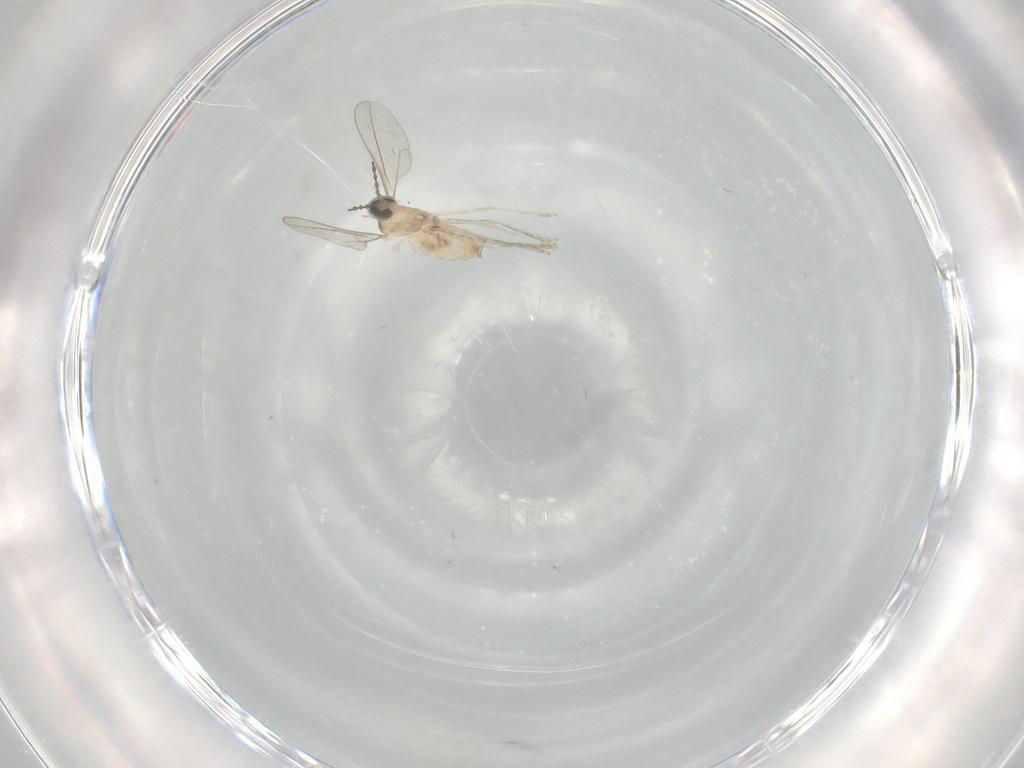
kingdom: Animalia
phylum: Arthropoda
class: Insecta
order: Diptera
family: Cecidomyiidae
